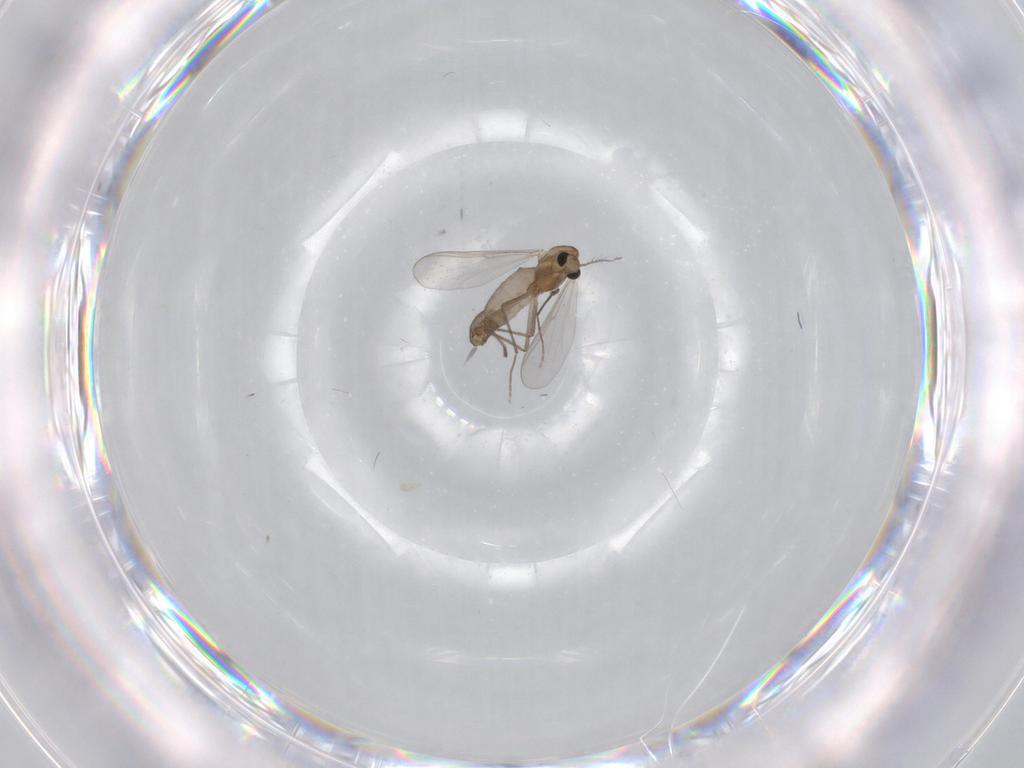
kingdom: Animalia
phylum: Arthropoda
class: Insecta
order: Diptera
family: Chironomidae
